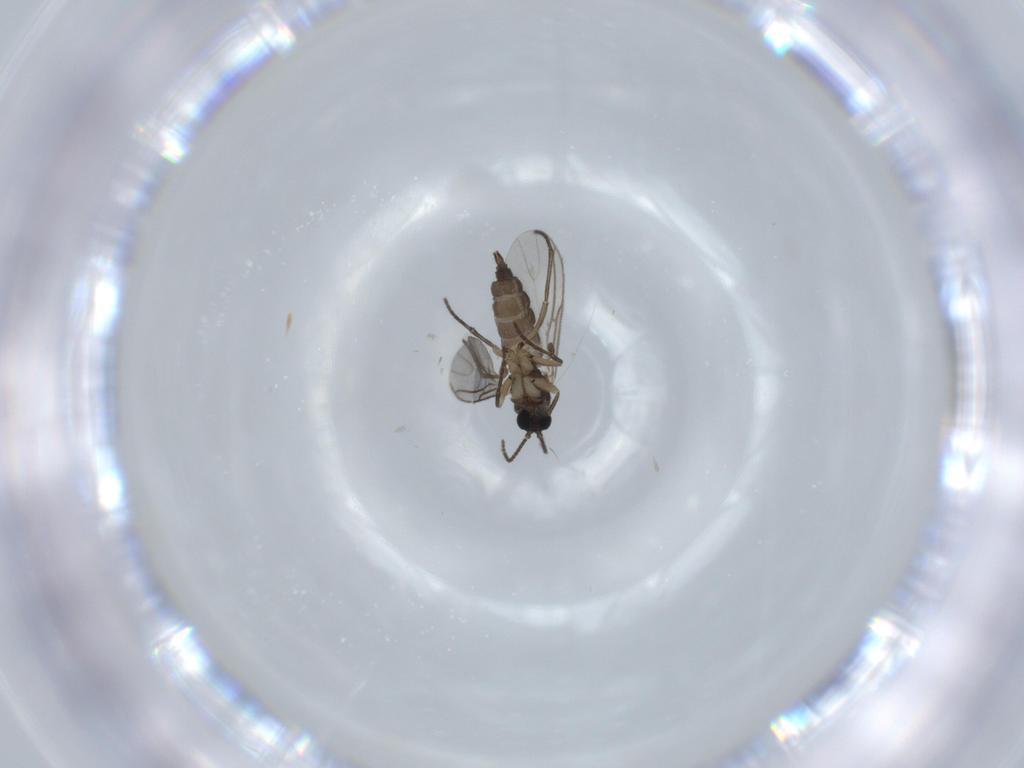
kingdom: Animalia
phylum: Arthropoda
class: Insecta
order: Diptera
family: Sciaridae
